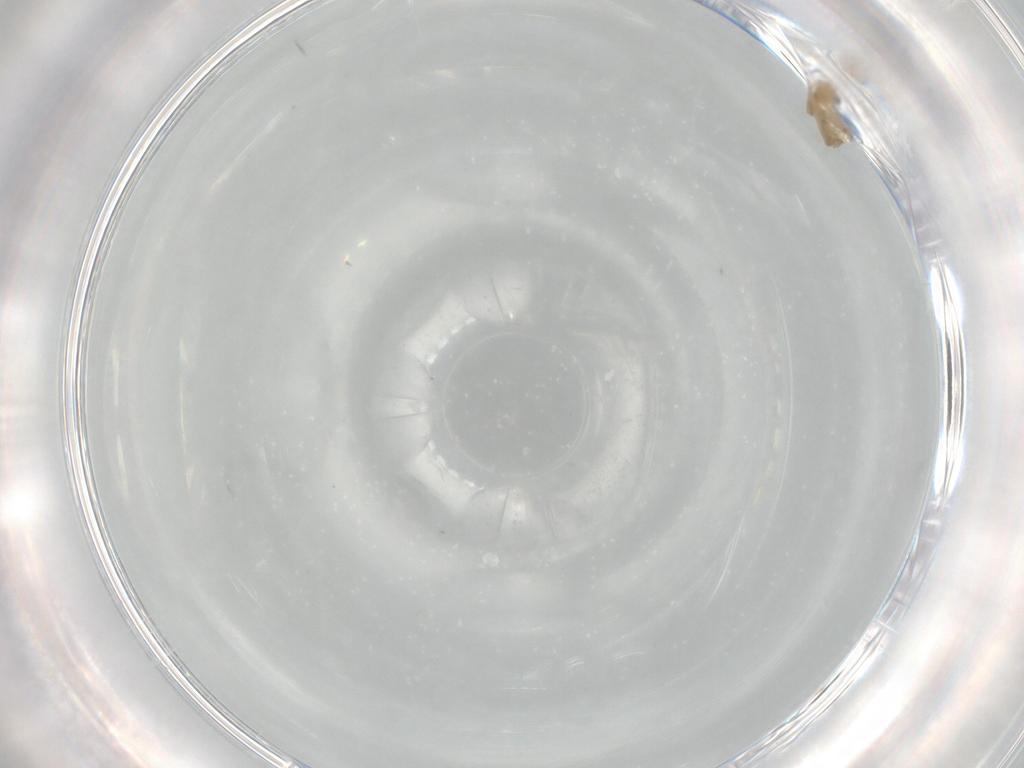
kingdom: Animalia
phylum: Arthropoda
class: Insecta
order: Diptera
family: Chironomidae
